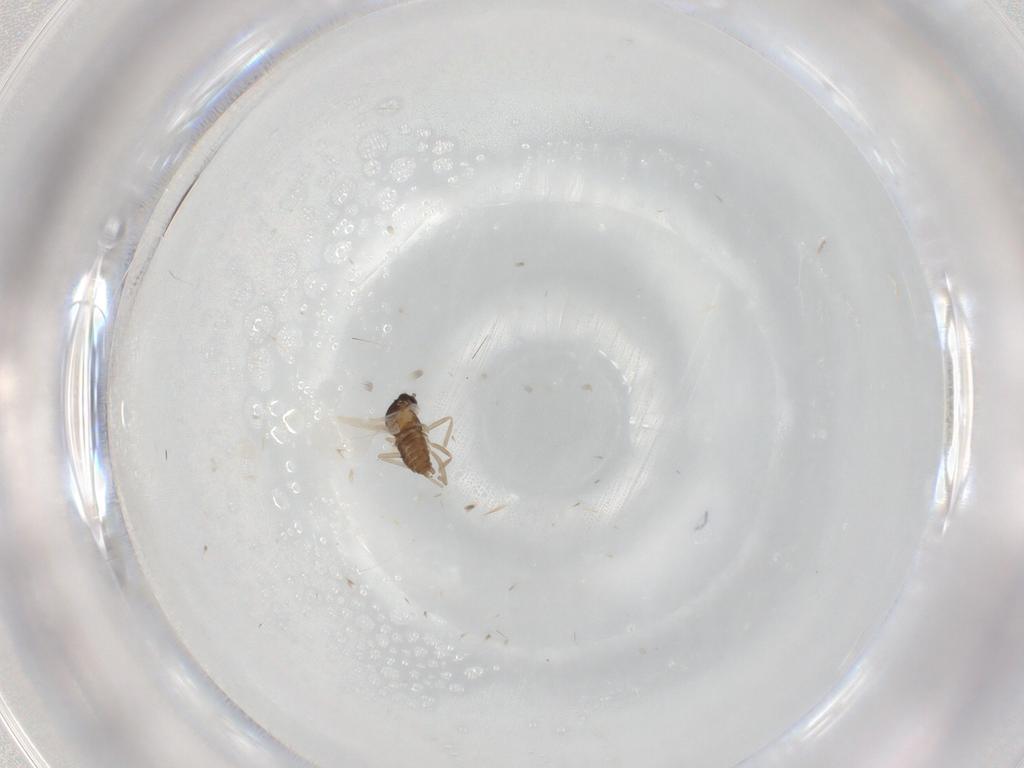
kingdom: Animalia
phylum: Arthropoda
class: Insecta
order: Diptera
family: Cecidomyiidae
